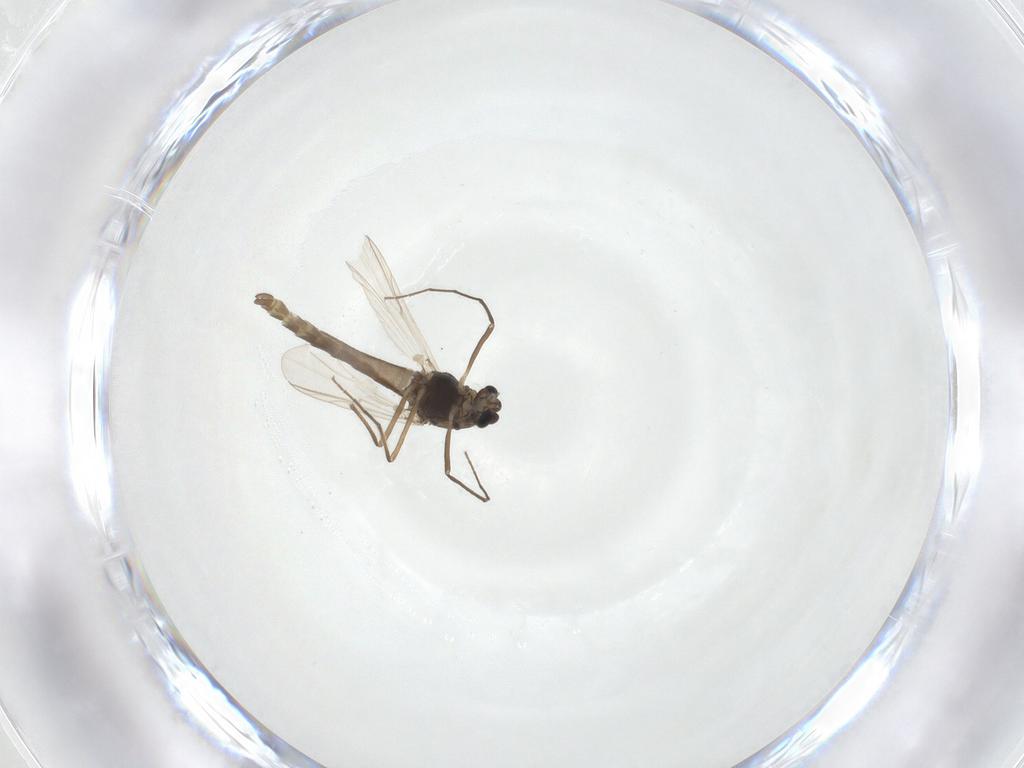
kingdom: Animalia
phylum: Arthropoda
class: Insecta
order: Diptera
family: Chironomidae
